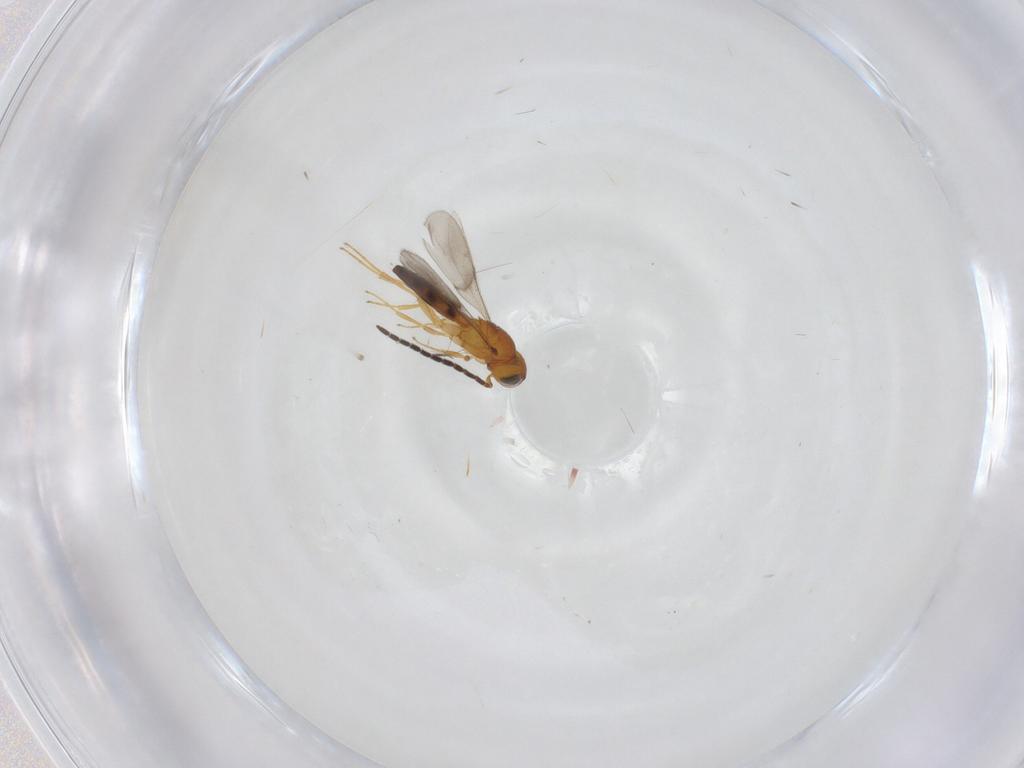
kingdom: Animalia
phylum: Arthropoda
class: Insecta
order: Hymenoptera
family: Scelionidae
